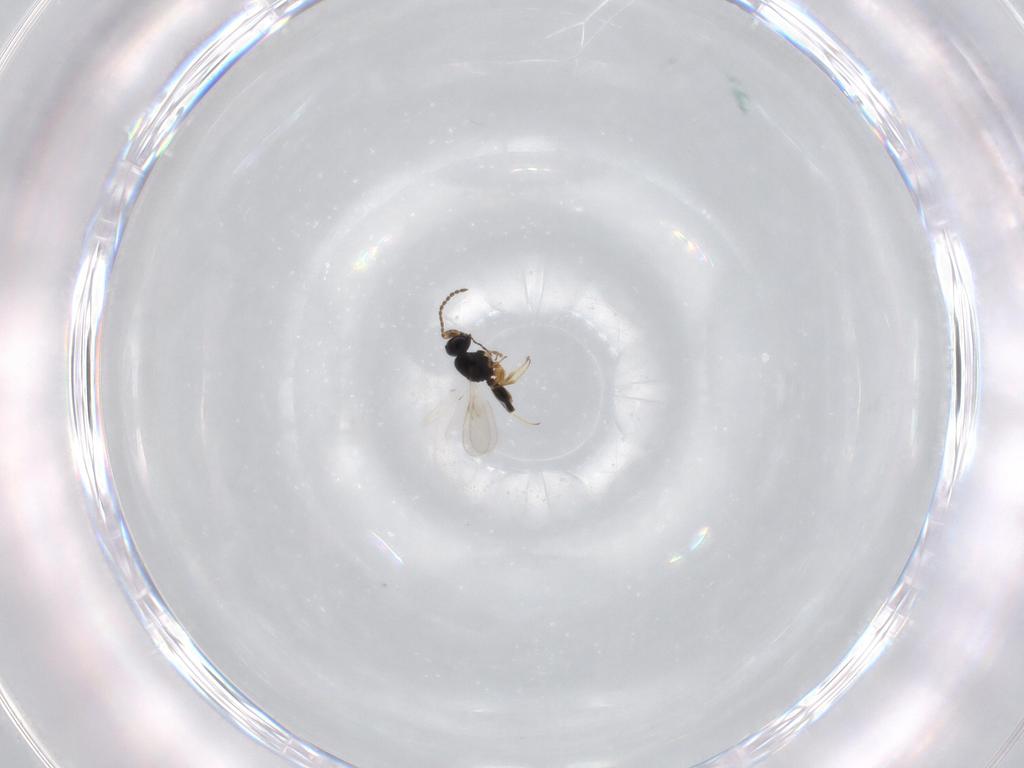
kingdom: Animalia
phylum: Arthropoda
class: Insecta
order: Hymenoptera
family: Scelionidae
